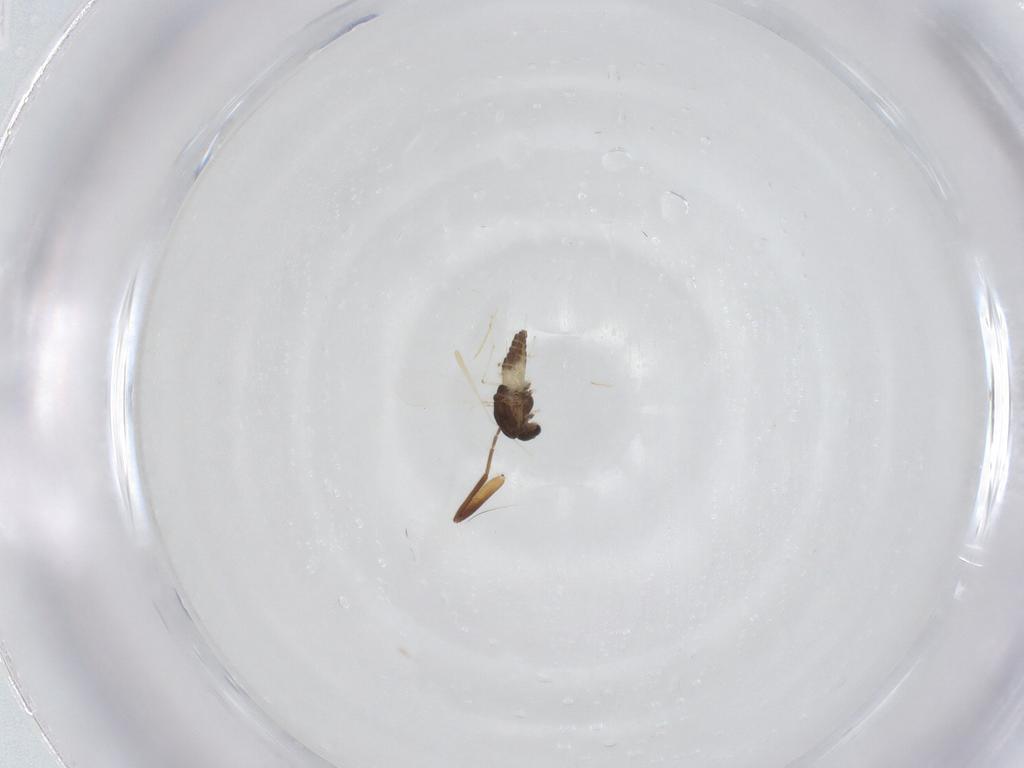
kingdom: Animalia
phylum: Arthropoda
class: Insecta
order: Diptera
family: Chironomidae
